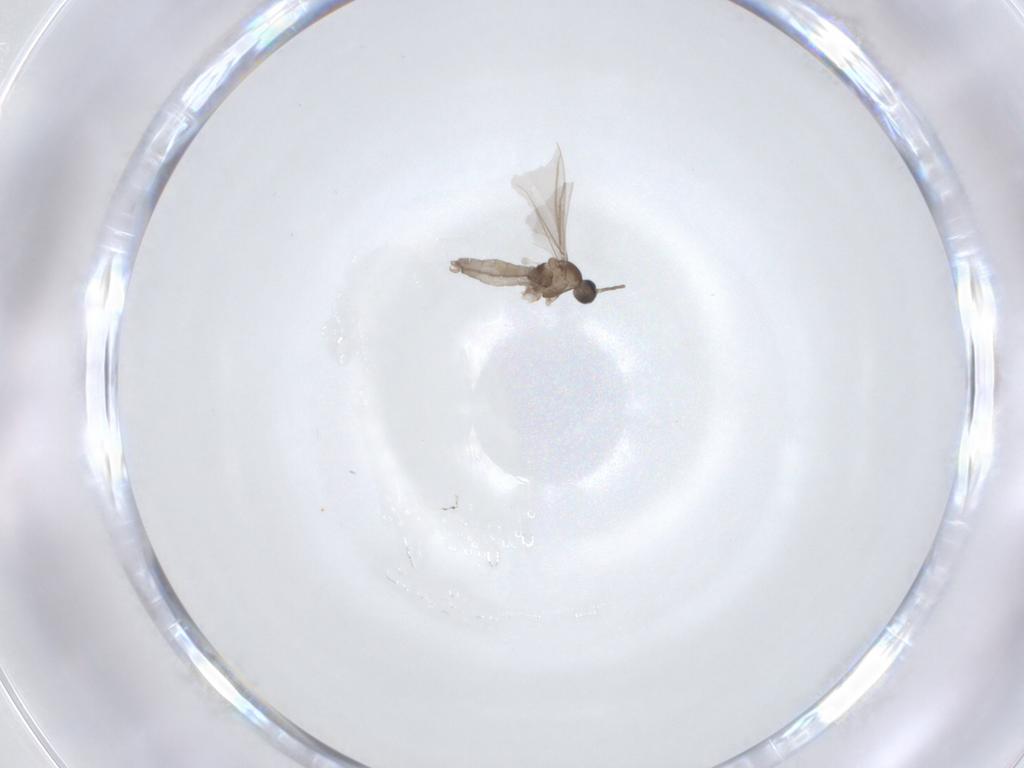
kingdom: Animalia
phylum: Arthropoda
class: Insecta
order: Diptera
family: Cecidomyiidae
